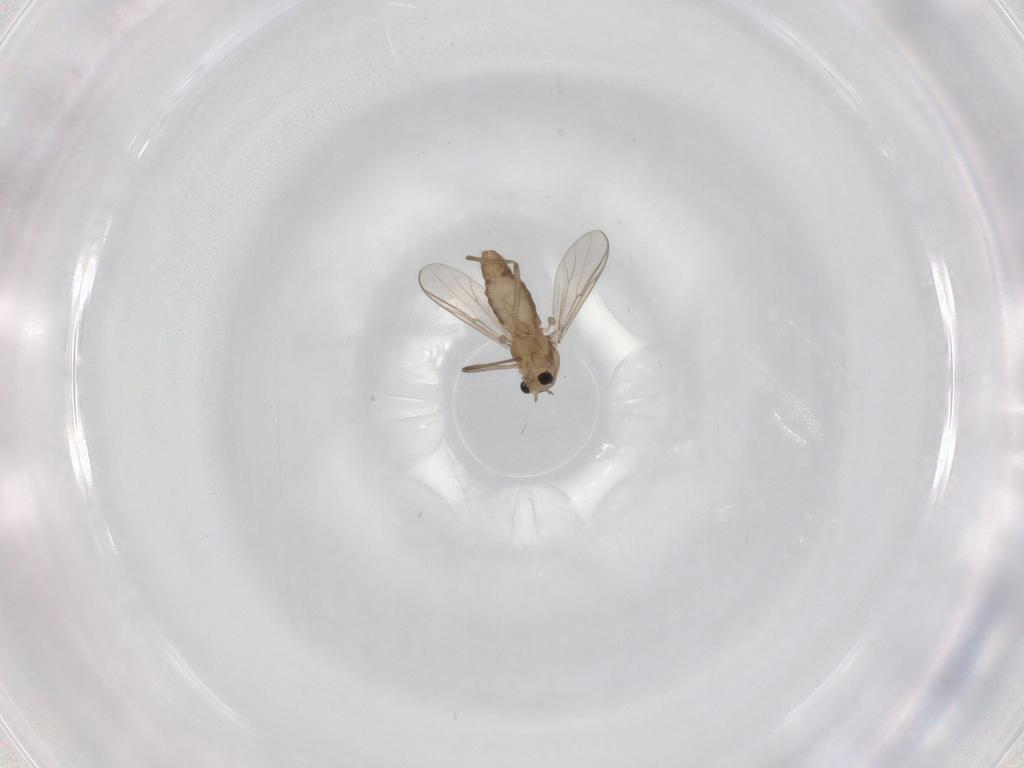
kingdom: Animalia
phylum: Arthropoda
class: Insecta
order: Diptera
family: Chironomidae
